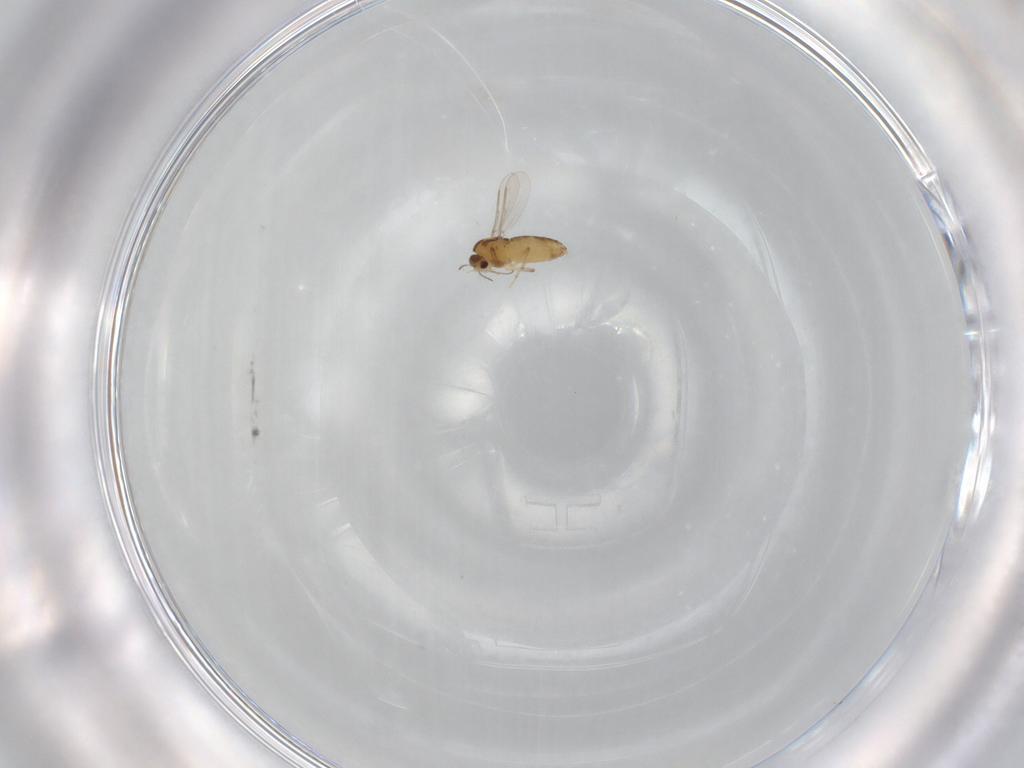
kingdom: Animalia
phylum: Arthropoda
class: Insecta
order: Diptera
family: Chironomidae
